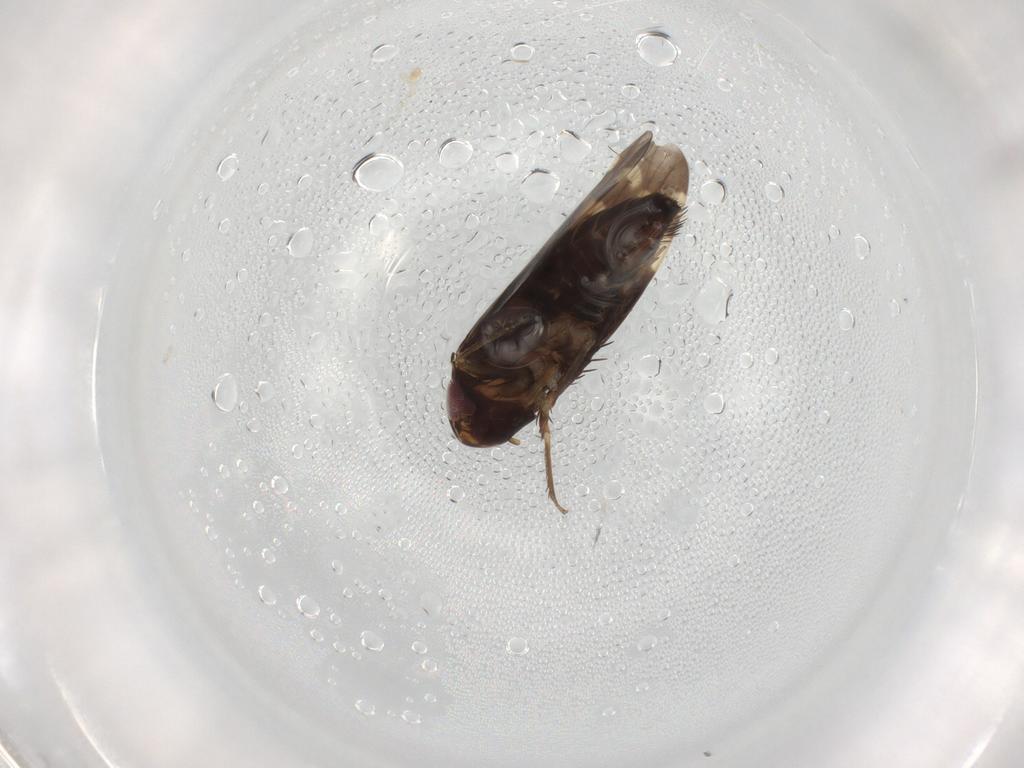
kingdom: Animalia
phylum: Arthropoda
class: Insecta
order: Hemiptera
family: Cicadellidae
